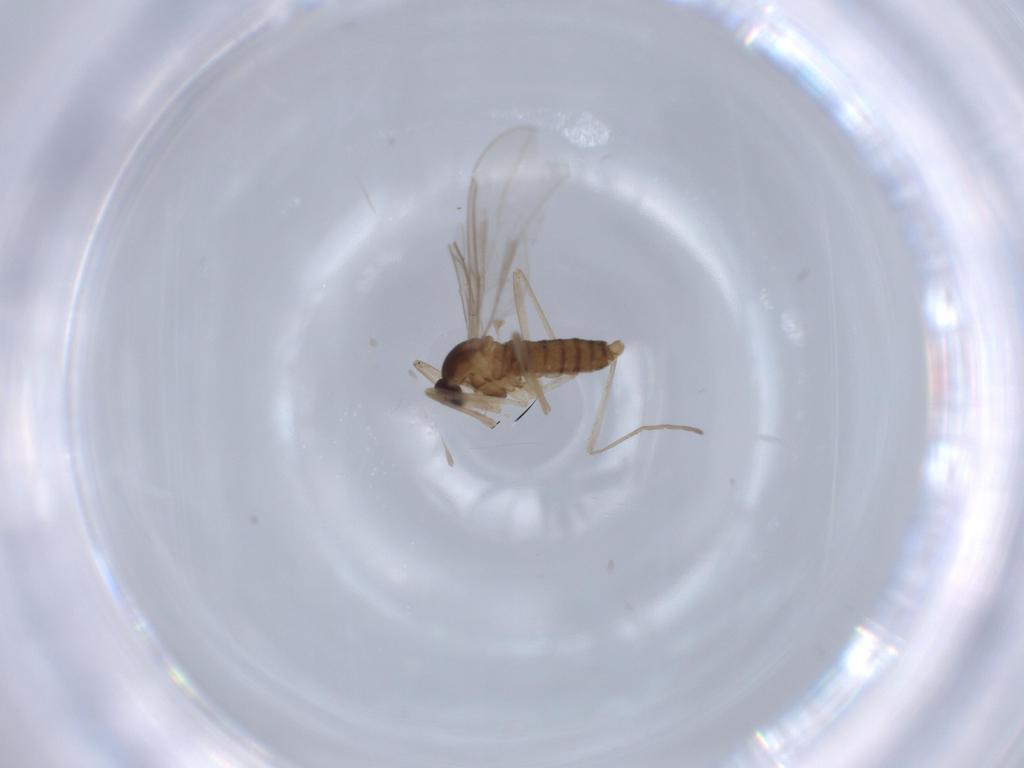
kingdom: Animalia
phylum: Arthropoda
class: Insecta
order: Diptera
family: Cecidomyiidae
